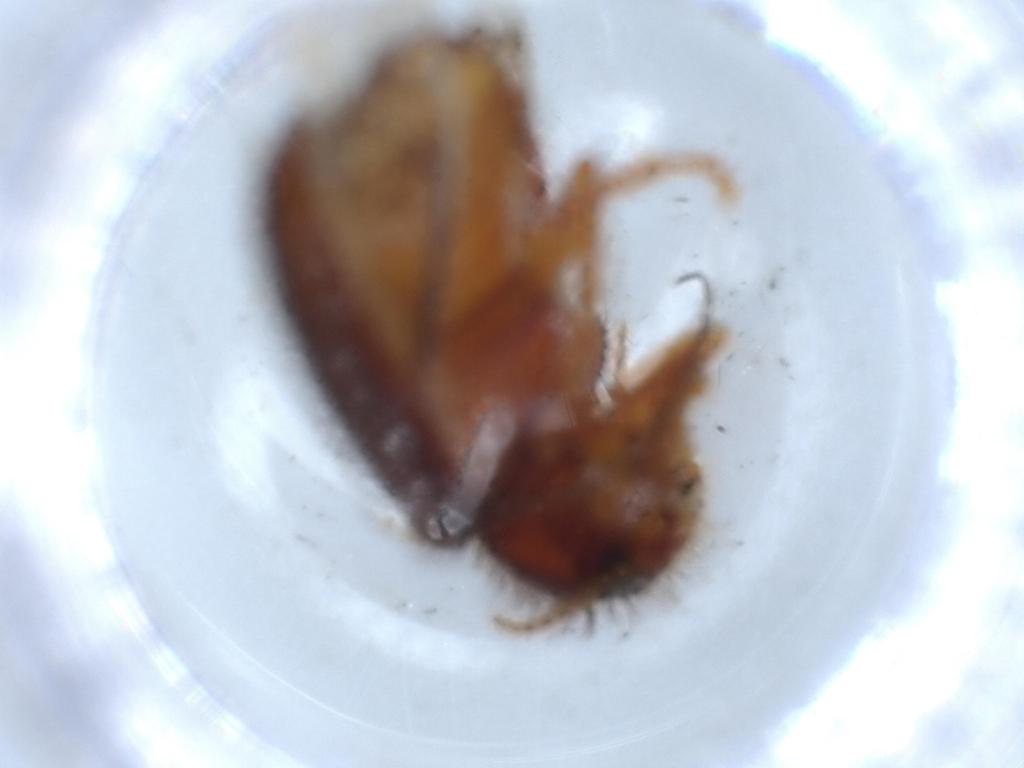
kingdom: Animalia
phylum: Arthropoda
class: Insecta
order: Coleoptera
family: Curculionidae
